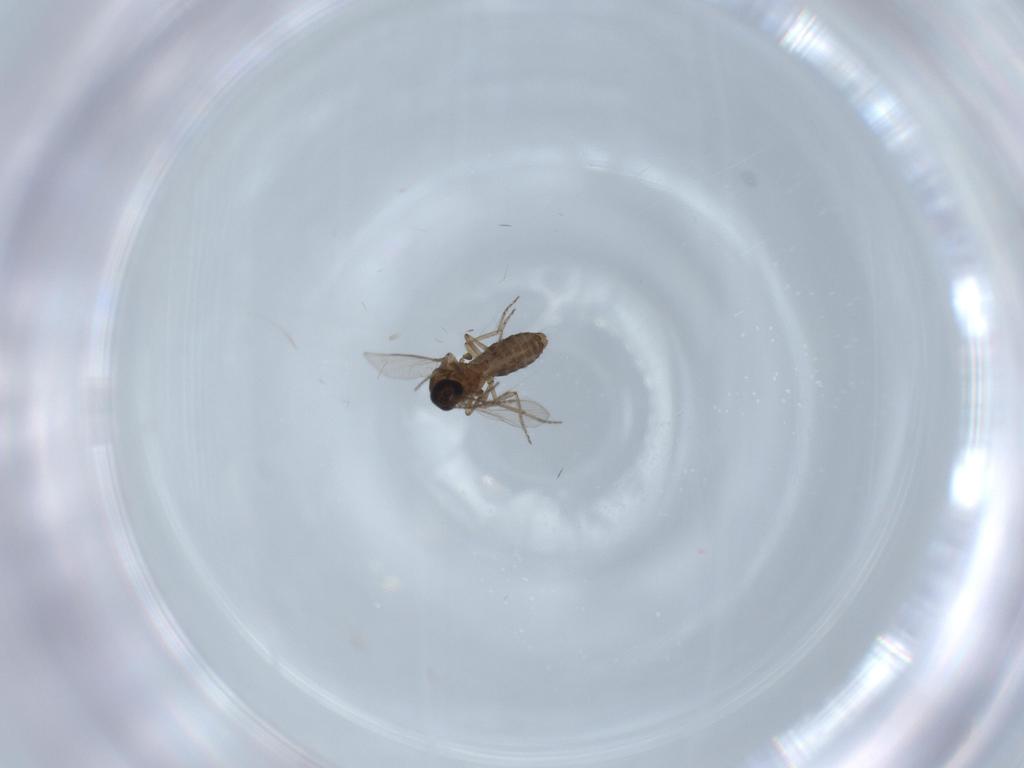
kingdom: Animalia
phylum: Arthropoda
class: Insecta
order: Diptera
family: Ceratopogonidae
